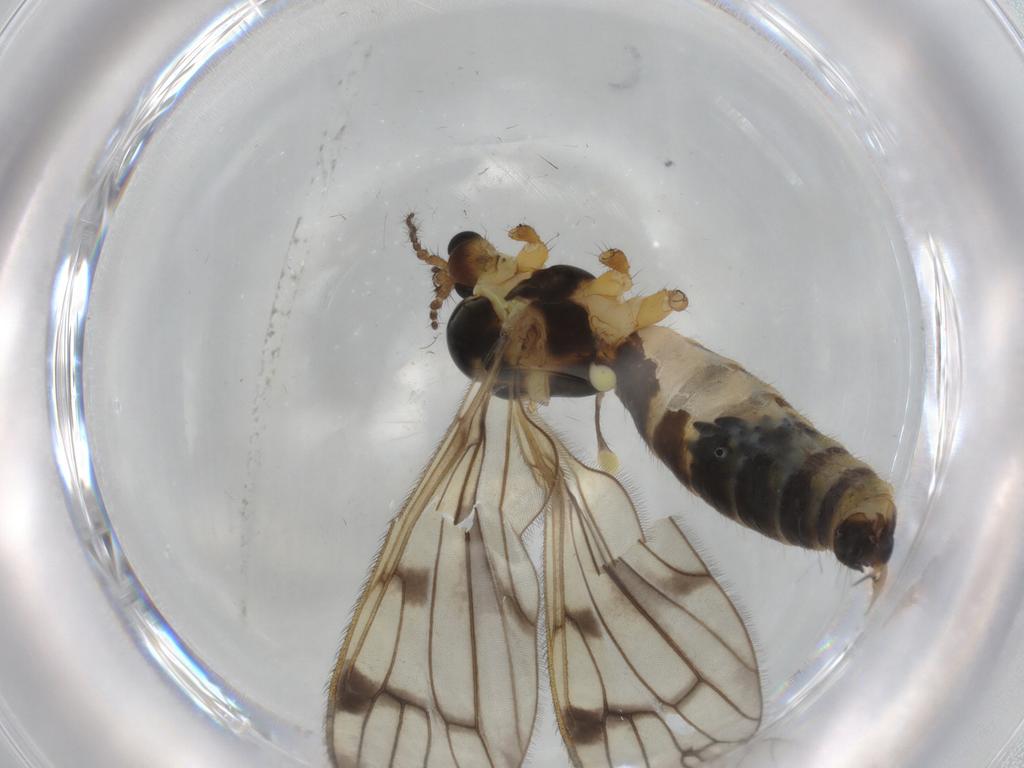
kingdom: Animalia
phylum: Arthropoda
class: Insecta
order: Diptera
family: Limoniidae
